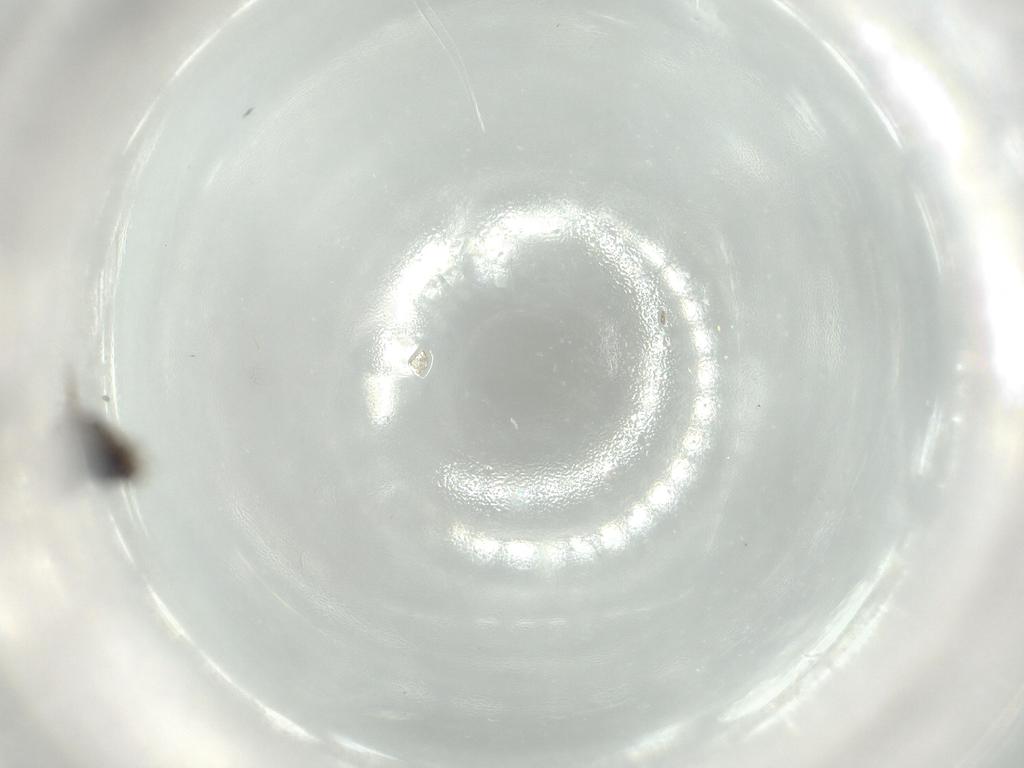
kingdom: Animalia
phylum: Arthropoda
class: Insecta
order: Hemiptera
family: Schizopteridae
